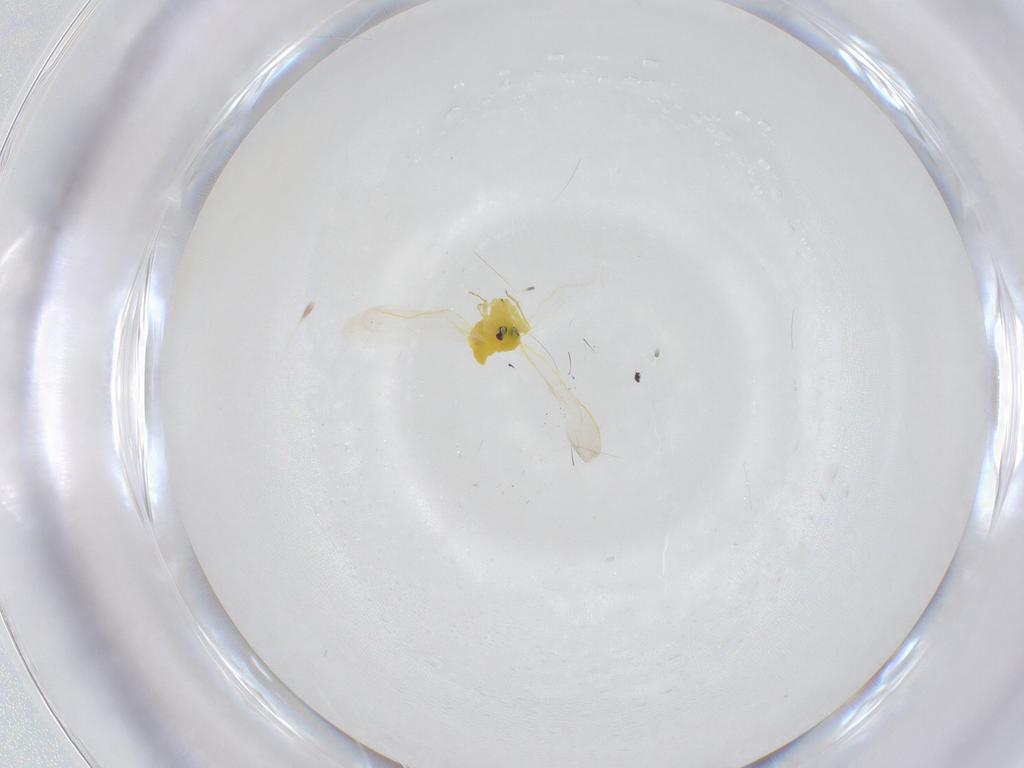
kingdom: Animalia
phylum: Arthropoda
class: Insecta
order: Hemiptera
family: Aleyrodidae
